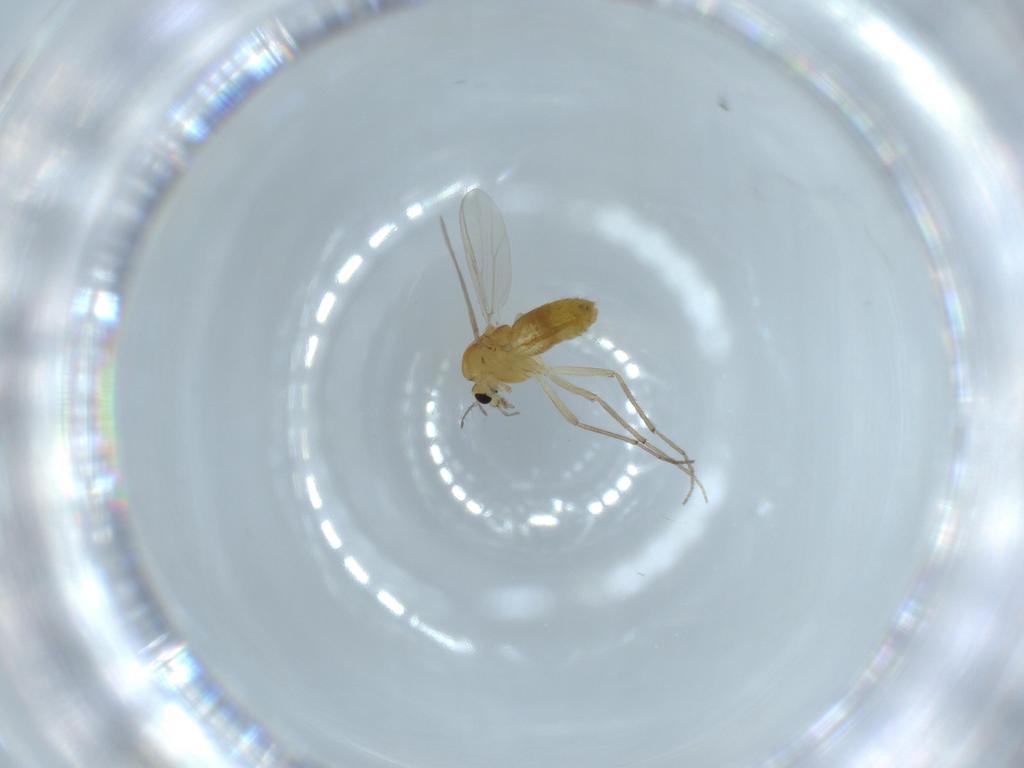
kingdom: Animalia
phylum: Arthropoda
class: Insecta
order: Diptera
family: Chironomidae
